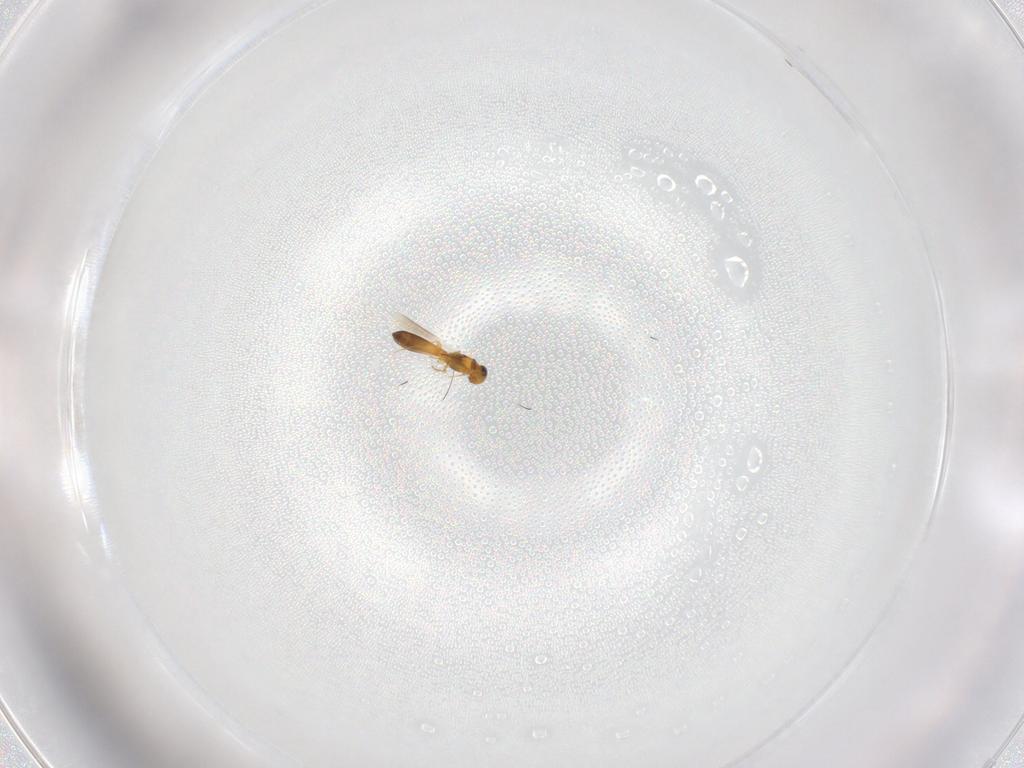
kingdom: Animalia
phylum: Arthropoda
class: Insecta
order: Hymenoptera
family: Platygastridae
